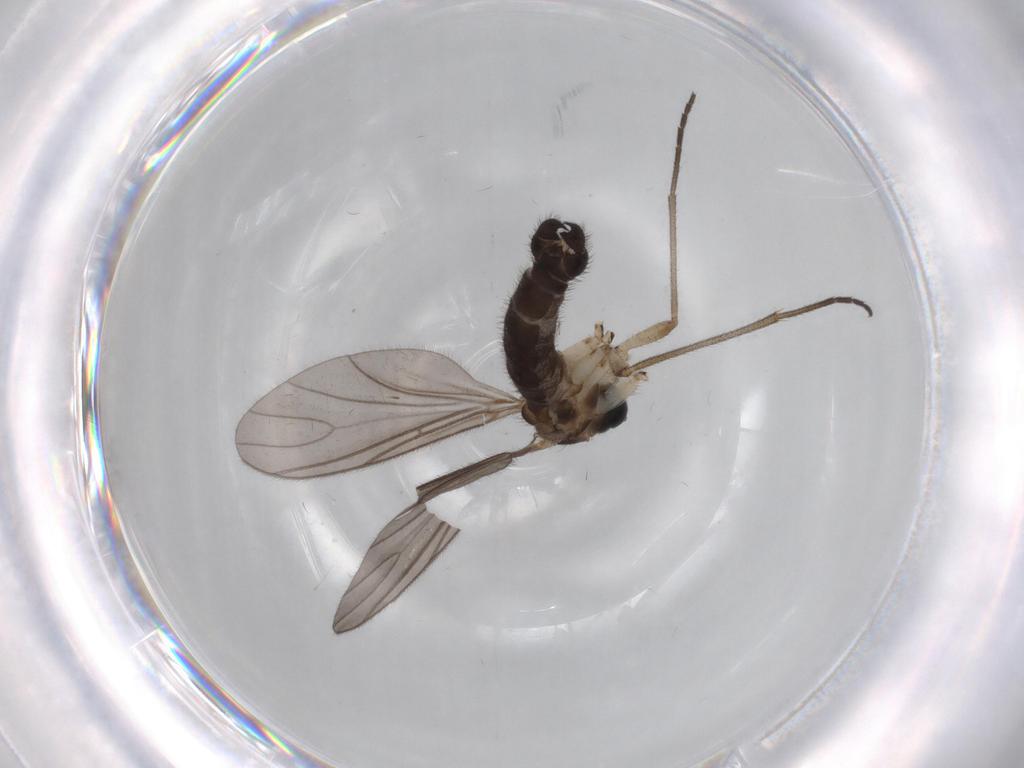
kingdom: Animalia
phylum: Arthropoda
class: Insecta
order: Diptera
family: Sciaridae
